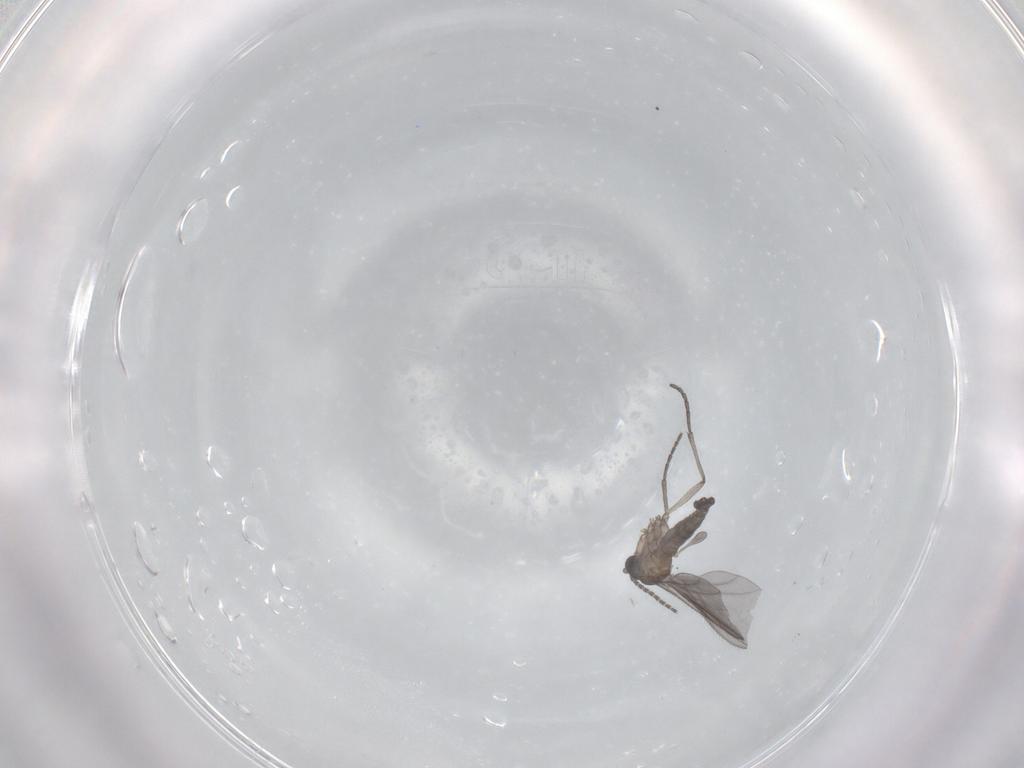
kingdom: Animalia
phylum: Arthropoda
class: Insecta
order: Diptera
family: Sciaridae
